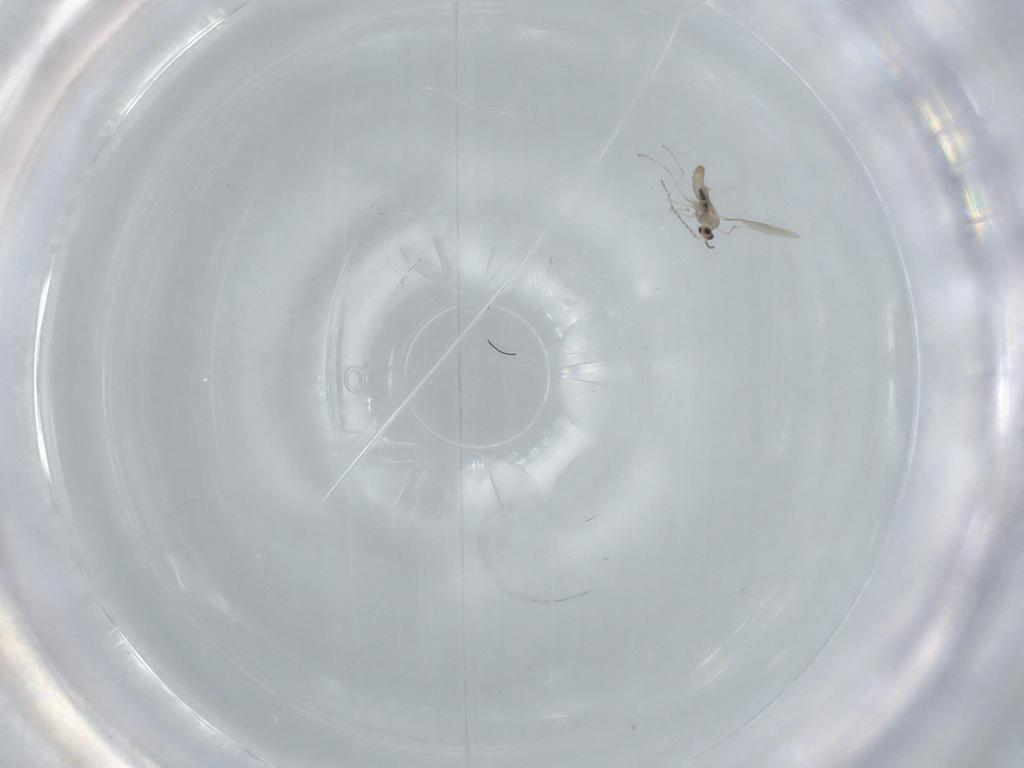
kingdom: Animalia
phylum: Arthropoda
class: Insecta
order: Diptera
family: Cecidomyiidae
